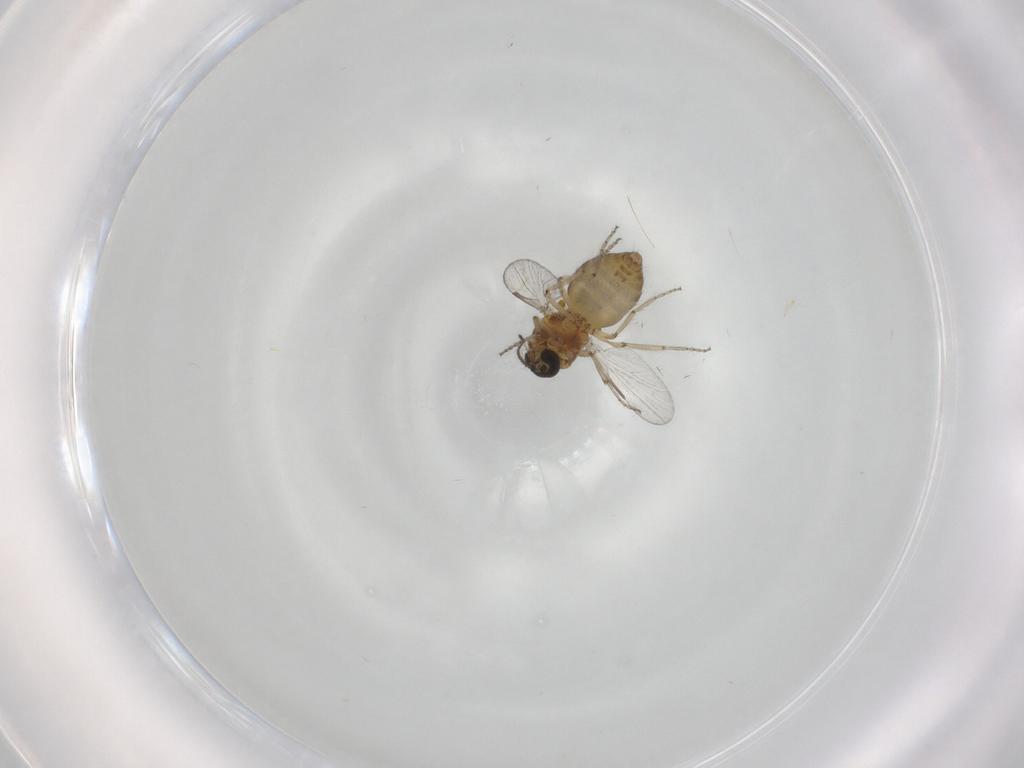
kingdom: Animalia
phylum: Arthropoda
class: Insecta
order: Diptera
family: Ceratopogonidae
